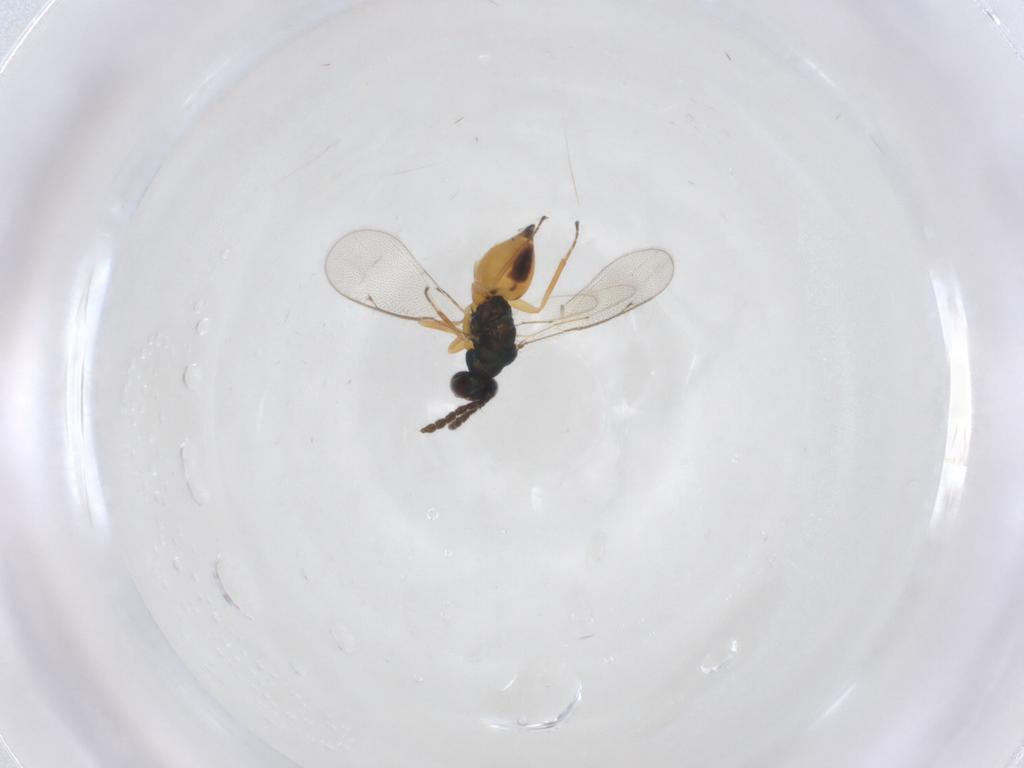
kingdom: Animalia
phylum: Arthropoda
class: Insecta
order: Hymenoptera
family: Eulophidae
